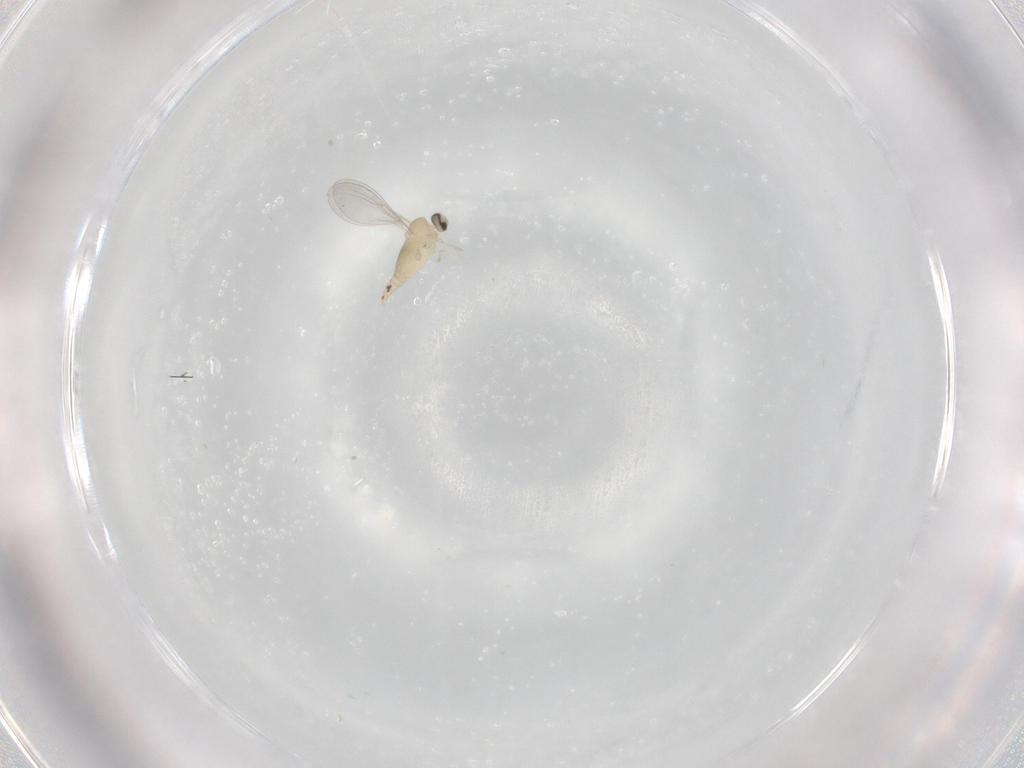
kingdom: Animalia
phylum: Arthropoda
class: Insecta
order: Diptera
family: Cecidomyiidae
